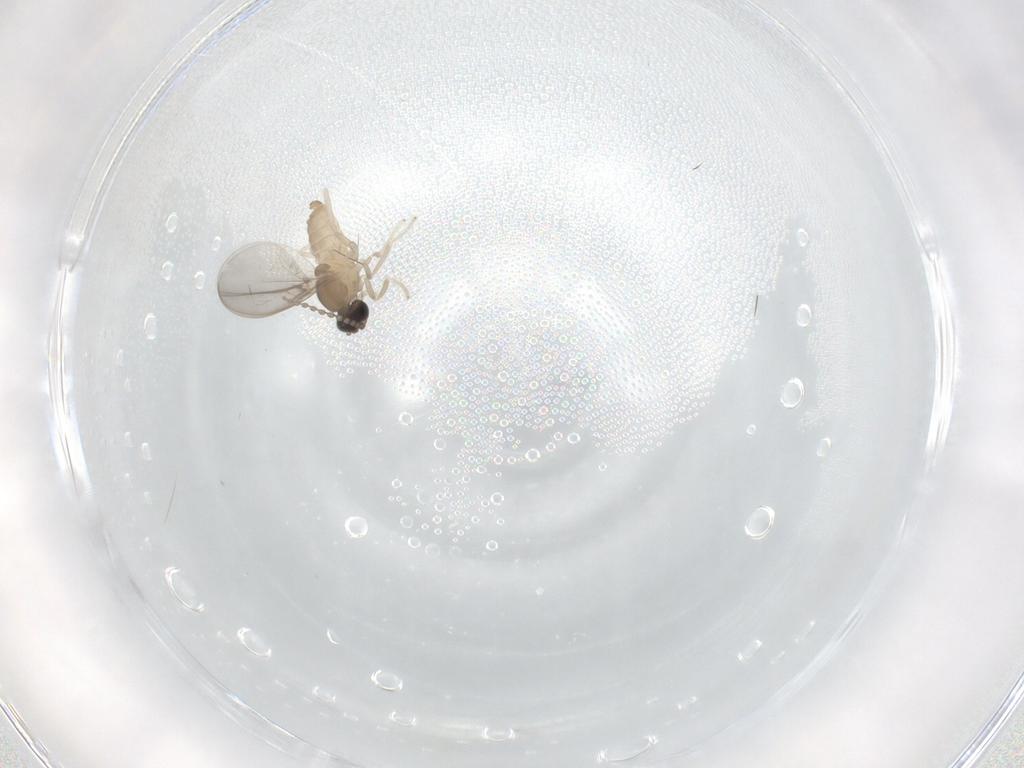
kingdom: Animalia
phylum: Arthropoda
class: Insecta
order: Diptera
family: Cecidomyiidae
